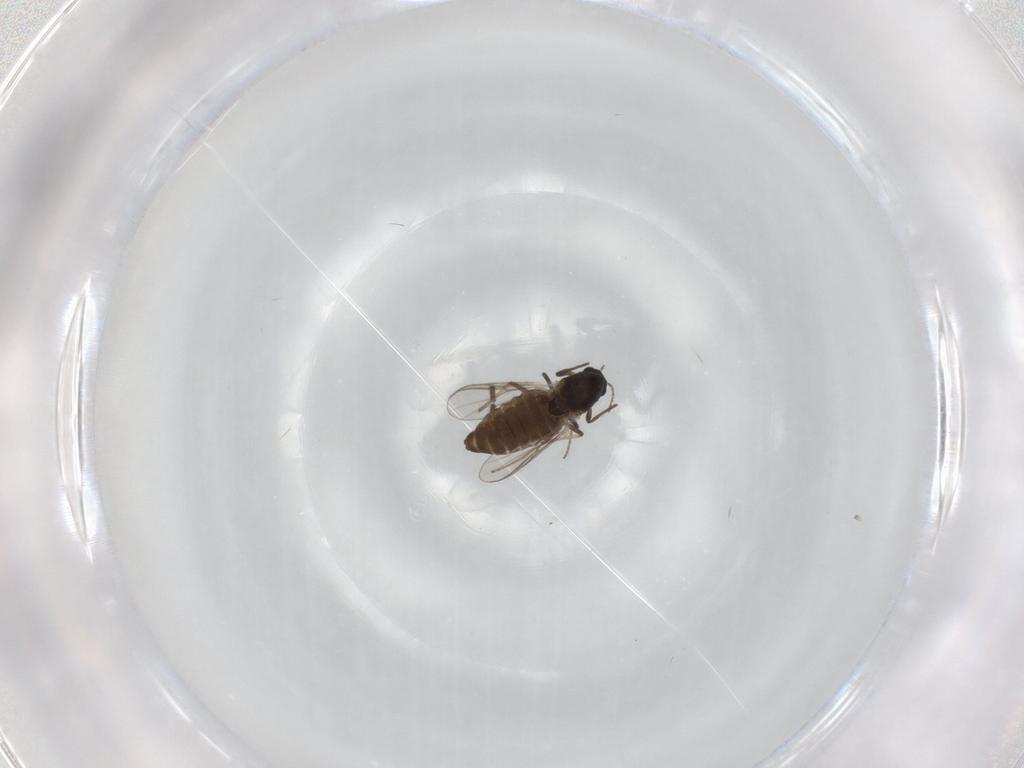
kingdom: Animalia
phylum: Arthropoda
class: Insecta
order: Diptera
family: Chironomidae
